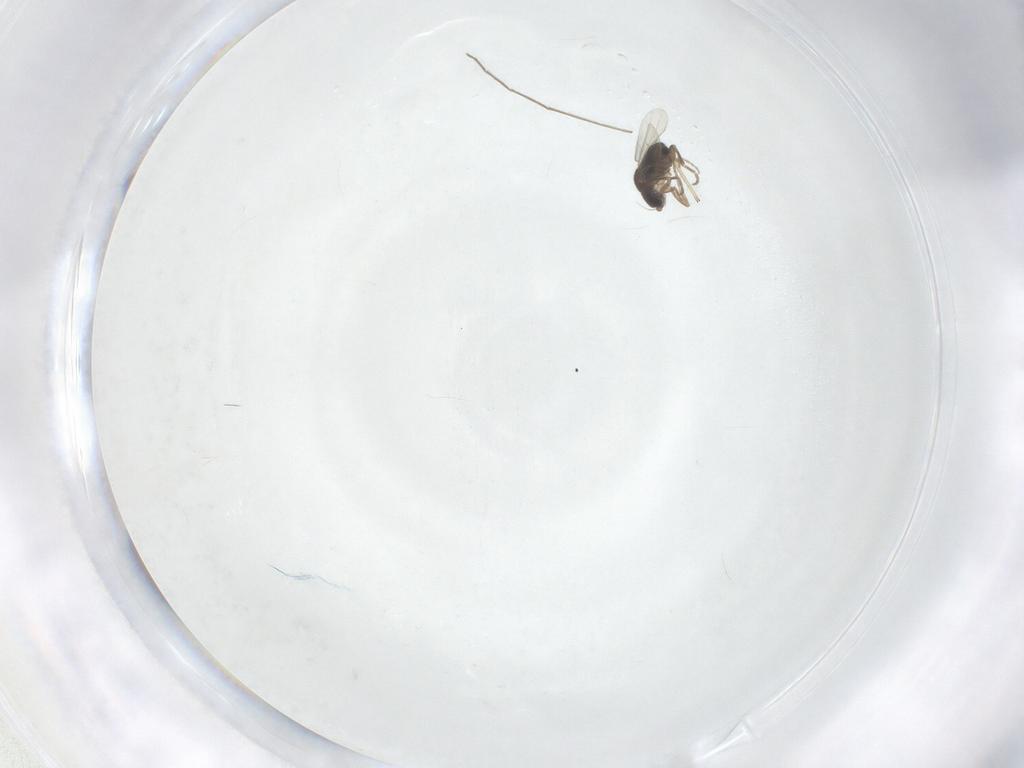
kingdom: Animalia
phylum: Arthropoda
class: Insecta
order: Diptera
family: Phoridae
